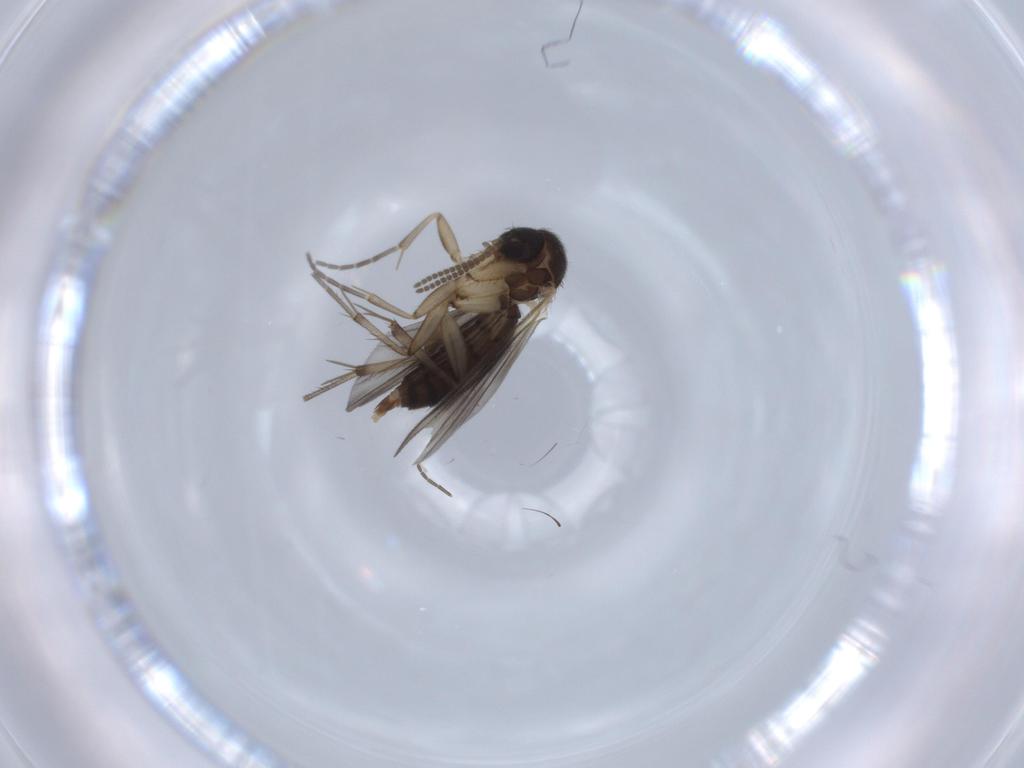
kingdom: Animalia
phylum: Arthropoda
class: Insecta
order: Diptera
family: Phoridae
